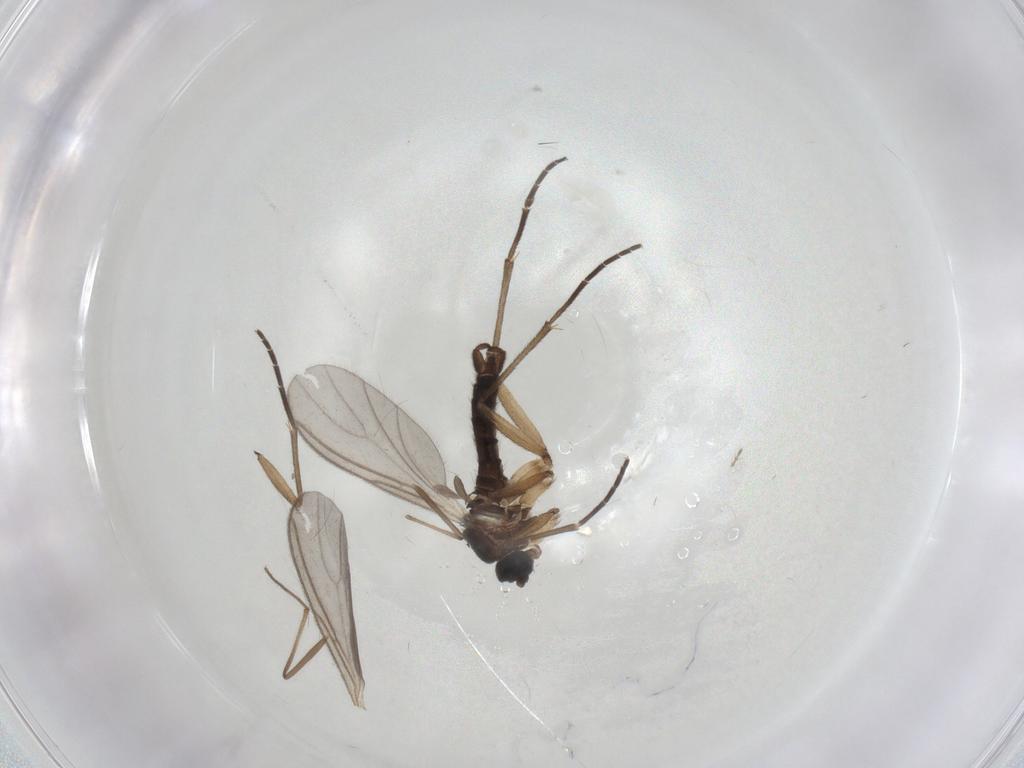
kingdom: Animalia
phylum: Arthropoda
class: Insecta
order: Diptera
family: Sciaridae
